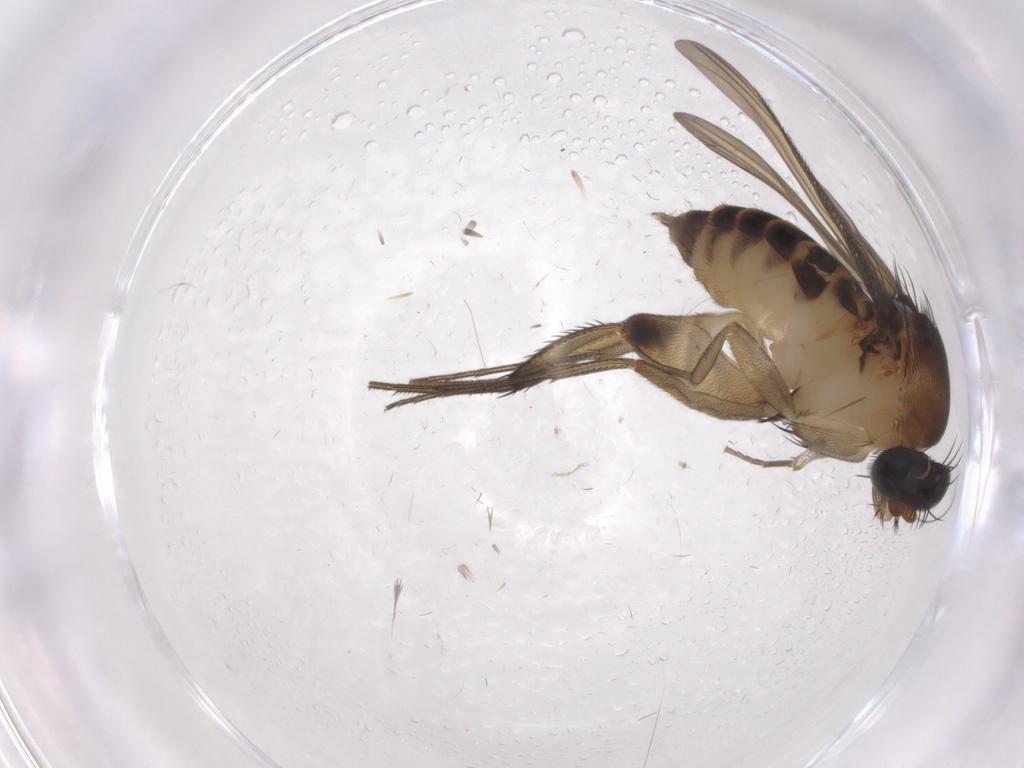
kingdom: Animalia
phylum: Arthropoda
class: Insecta
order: Diptera
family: Phoridae
